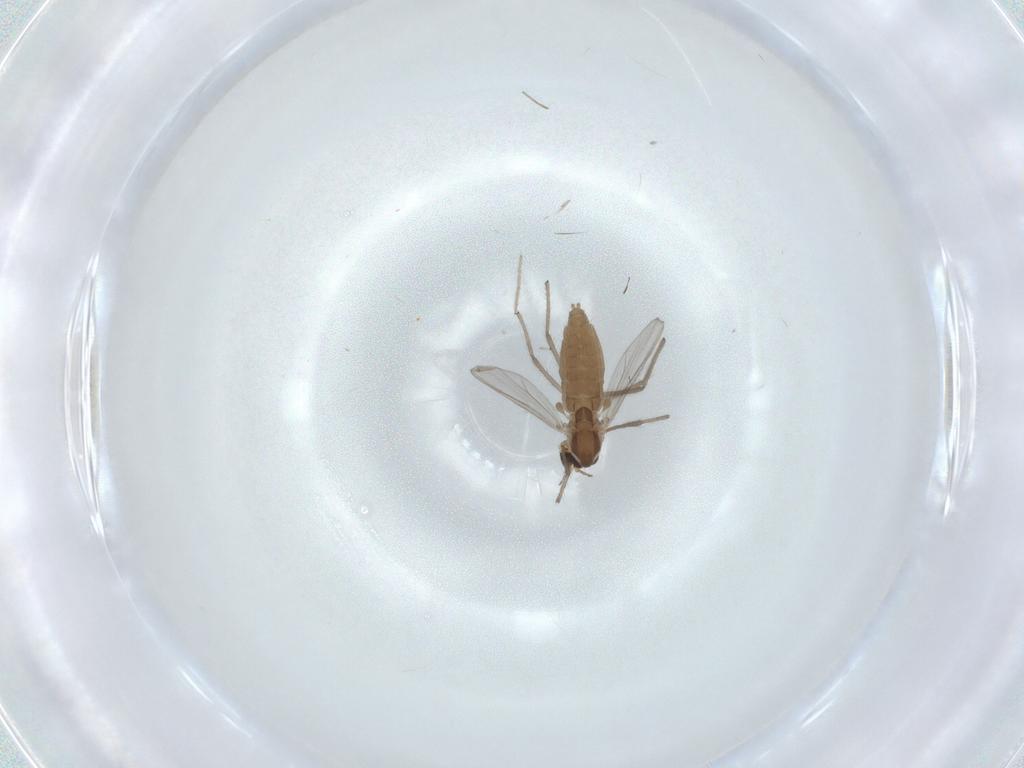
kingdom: Animalia
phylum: Arthropoda
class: Insecta
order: Diptera
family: Chironomidae
